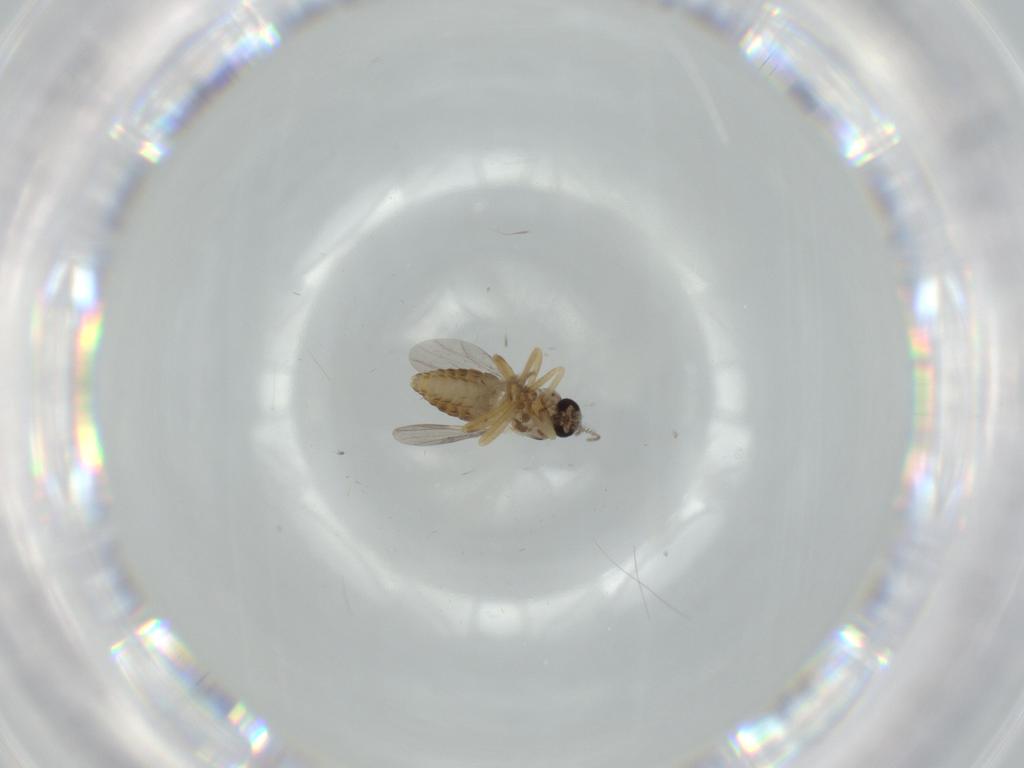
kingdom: Animalia
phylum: Arthropoda
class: Insecta
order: Diptera
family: Ceratopogonidae
